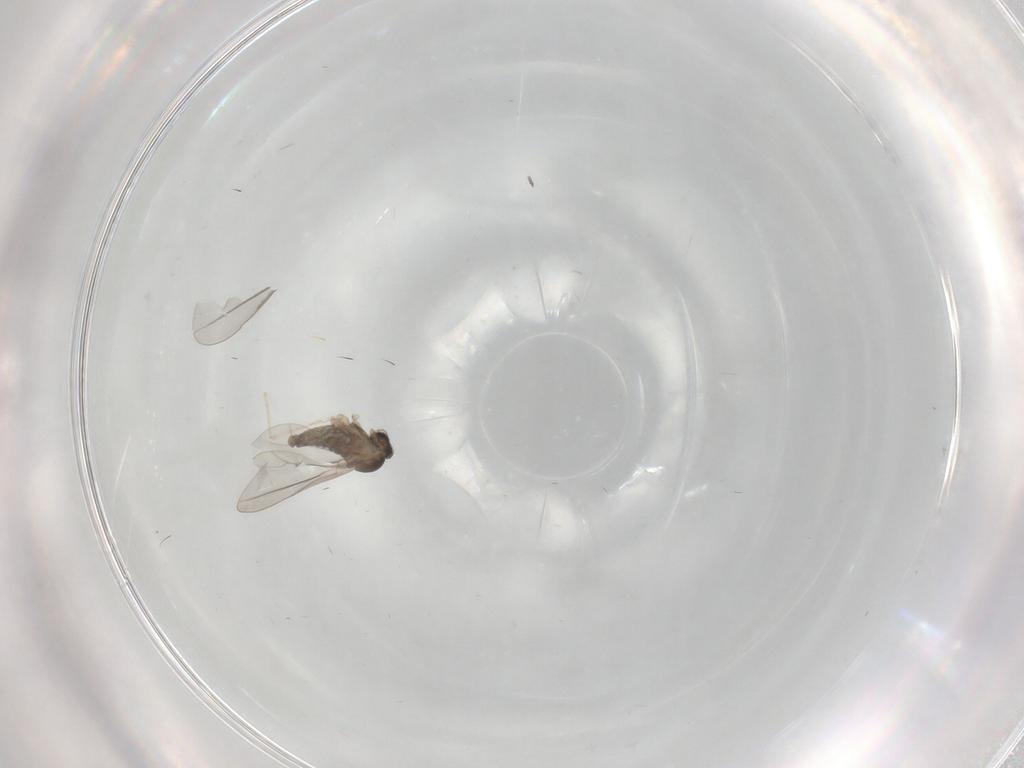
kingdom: Animalia
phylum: Arthropoda
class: Insecta
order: Diptera
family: Cecidomyiidae
